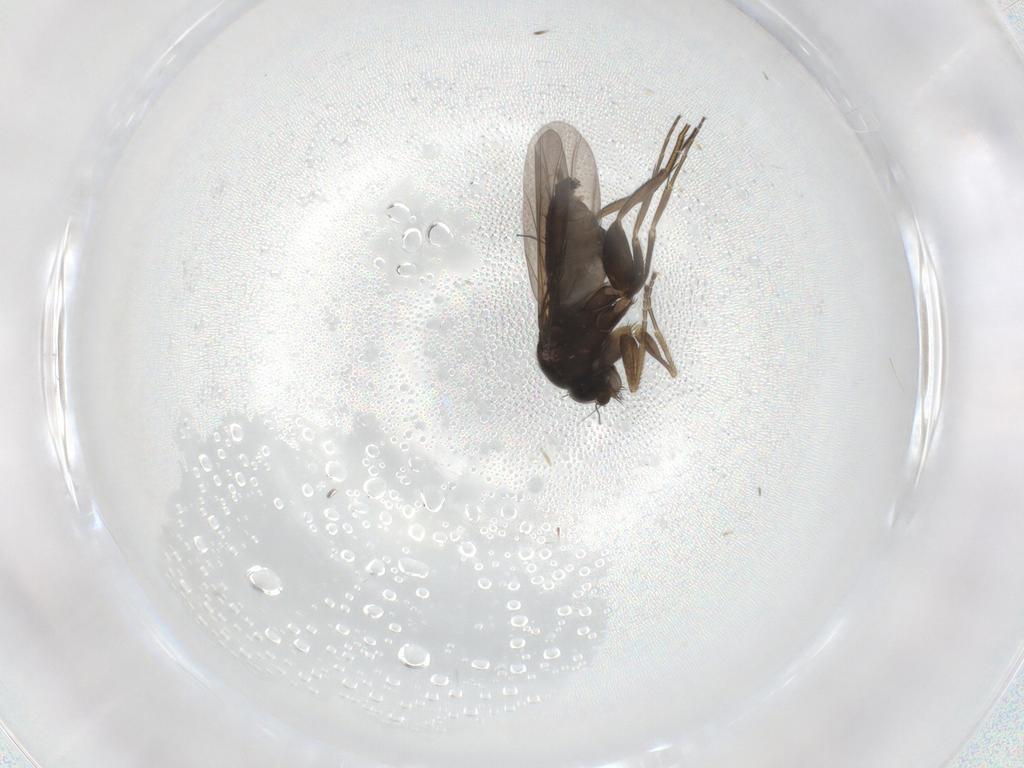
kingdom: Animalia
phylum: Arthropoda
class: Insecta
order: Diptera
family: Phoridae
